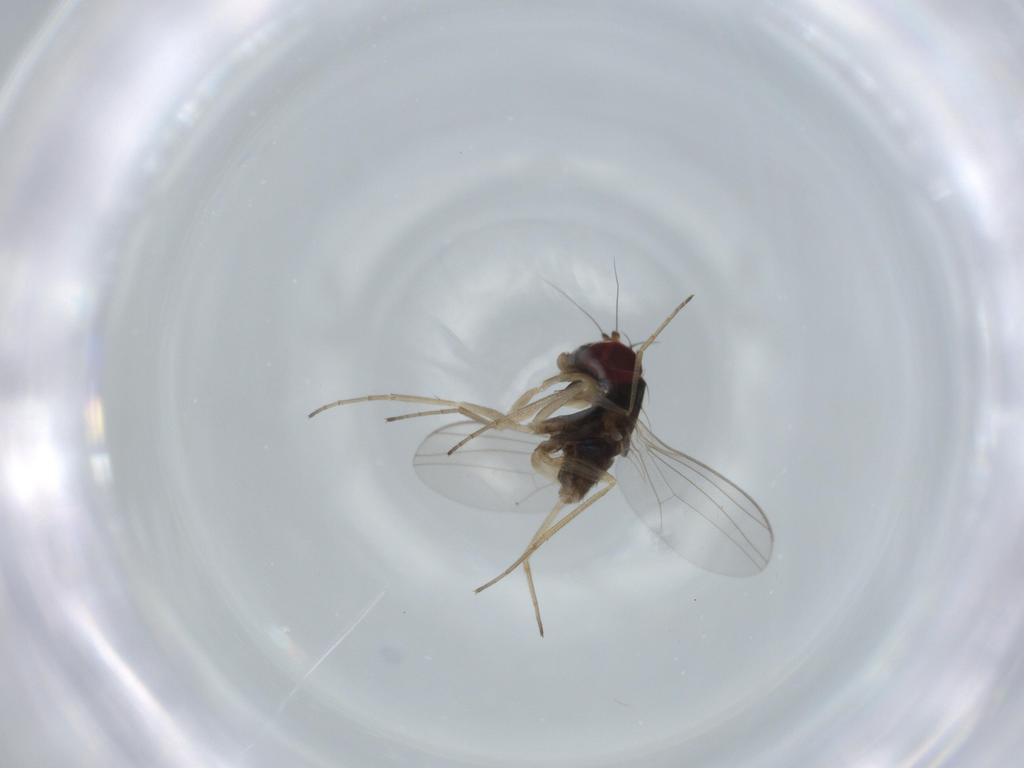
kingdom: Animalia
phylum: Arthropoda
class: Insecta
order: Diptera
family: Dolichopodidae
